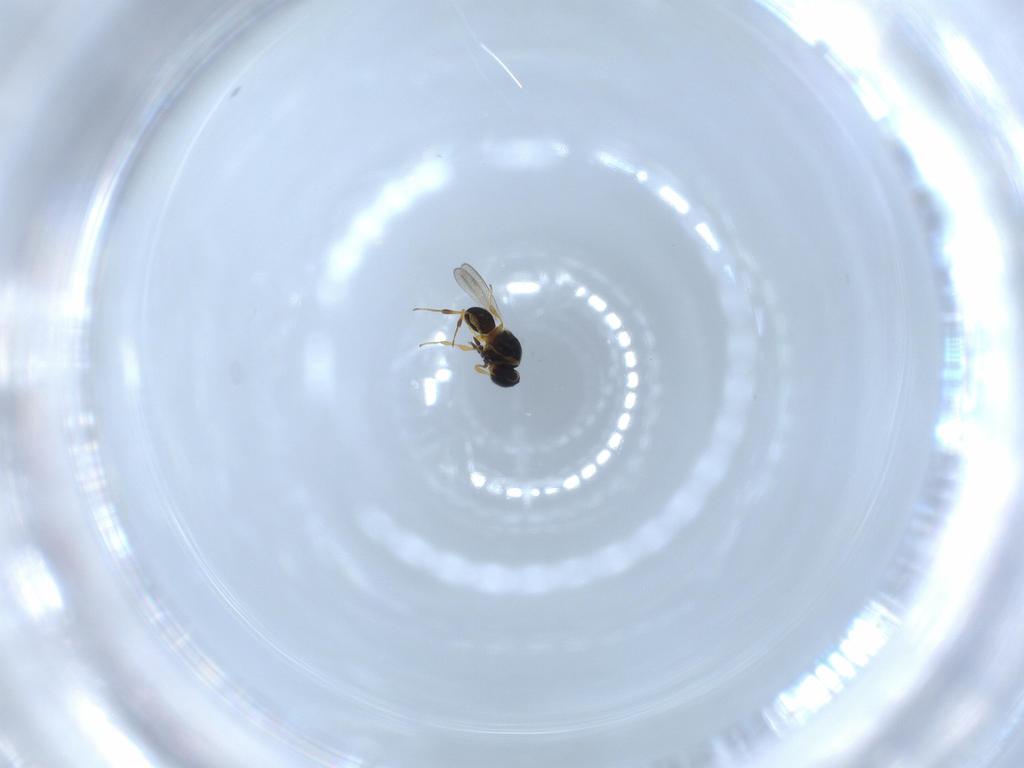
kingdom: Animalia
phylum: Arthropoda
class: Insecta
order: Hymenoptera
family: Platygastridae
